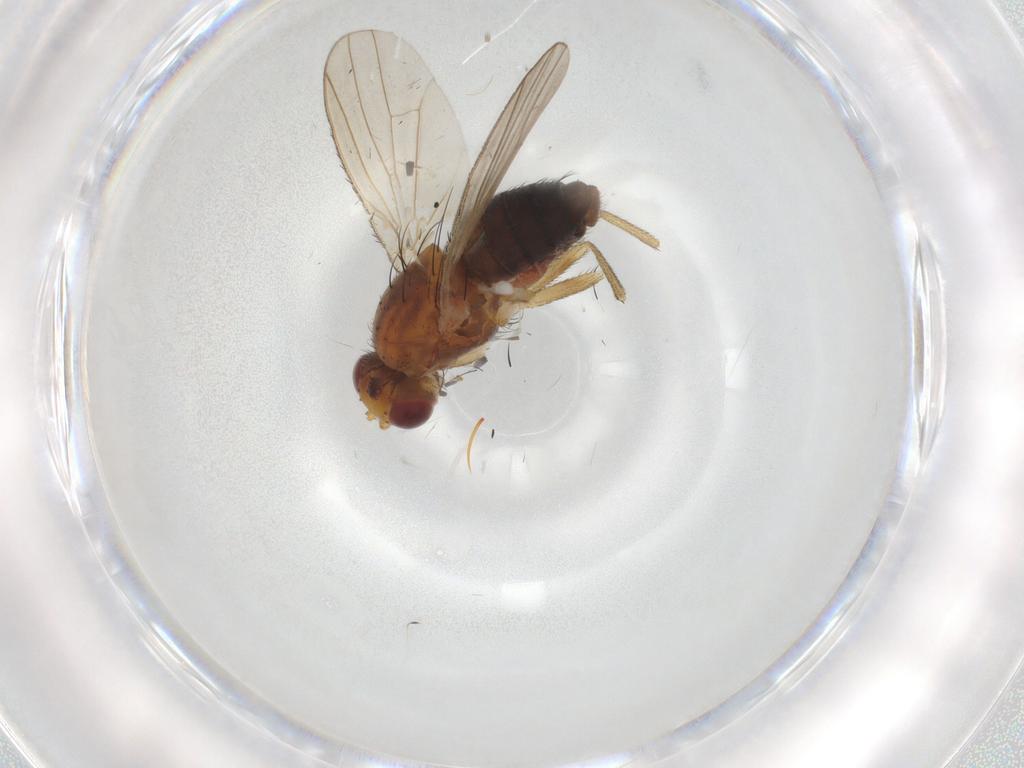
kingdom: Animalia
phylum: Arthropoda
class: Insecta
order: Diptera
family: Heleomyzidae
